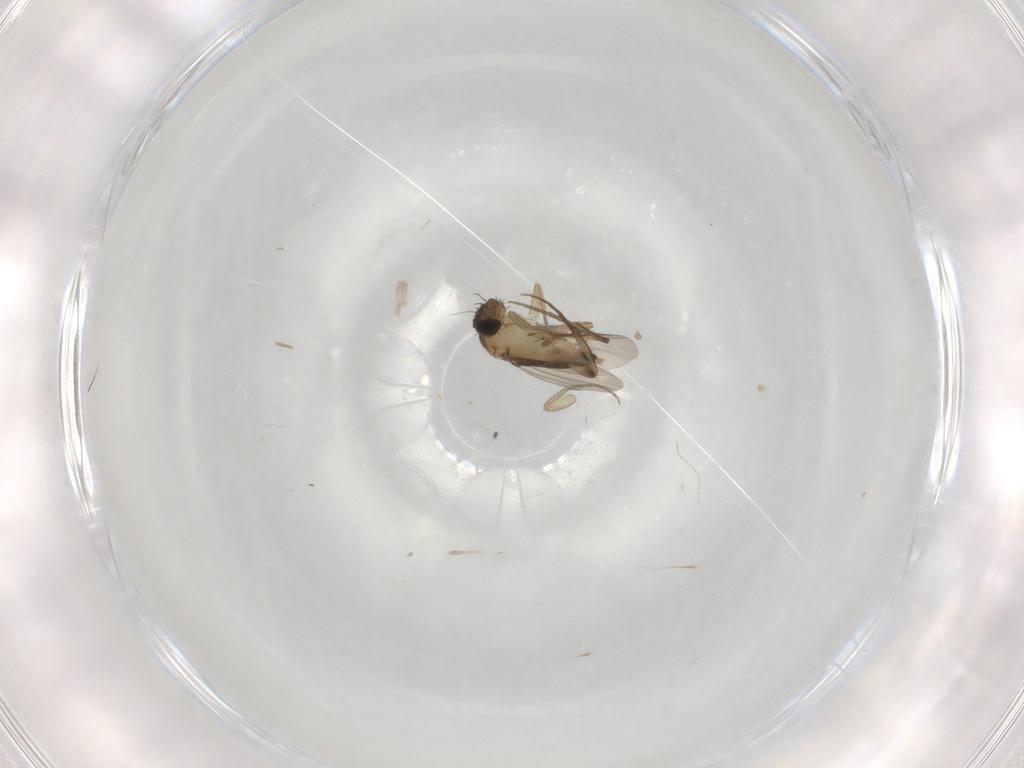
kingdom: Animalia
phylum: Arthropoda
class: Insecta
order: Diptera
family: Phoridae
